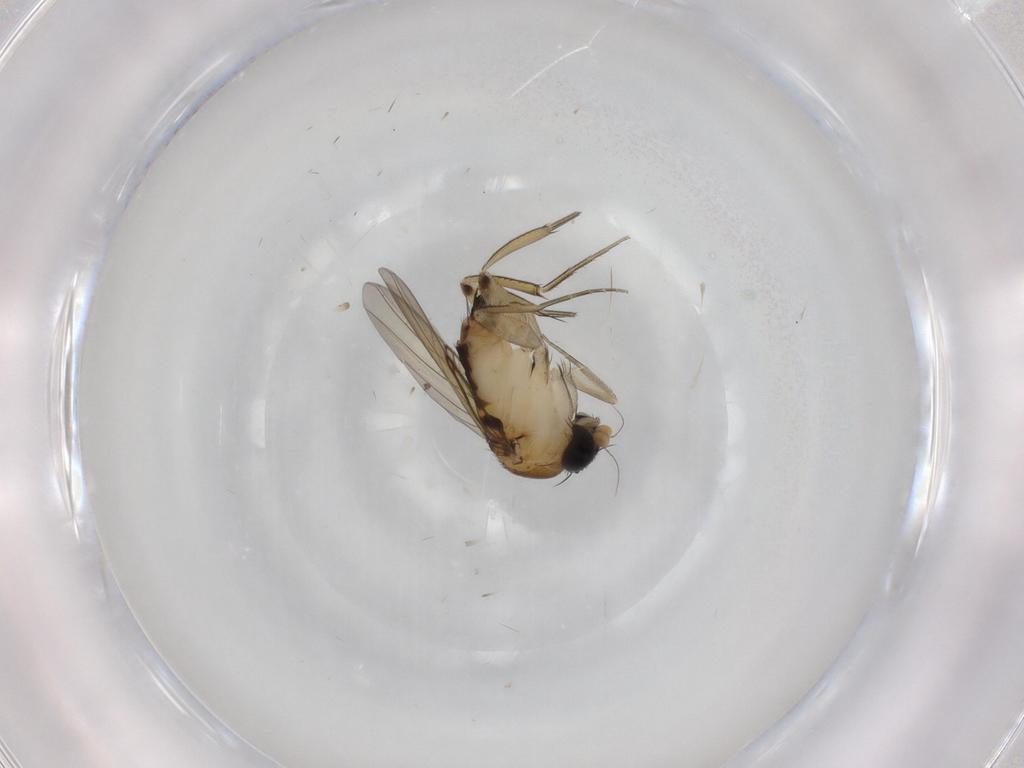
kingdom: Animalia
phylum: Arthropoda
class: Insecta
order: Diptera
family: Phoridae
